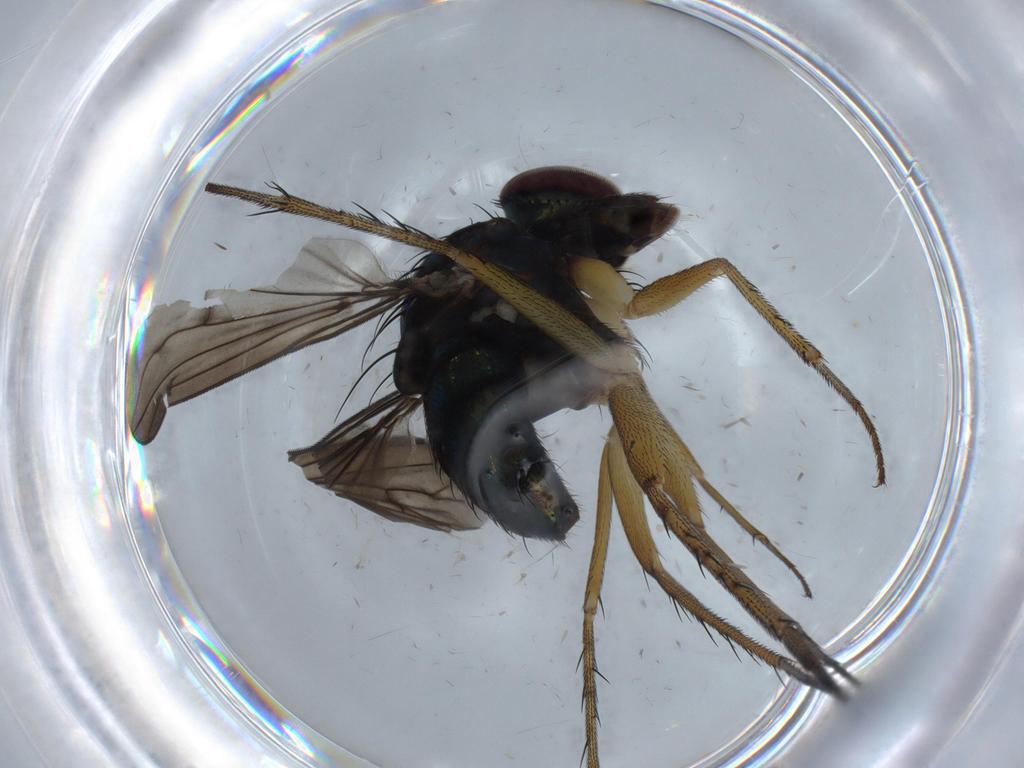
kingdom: Animalia
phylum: Arthropoda
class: Insecta
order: Diptera
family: Dolichopodidae
